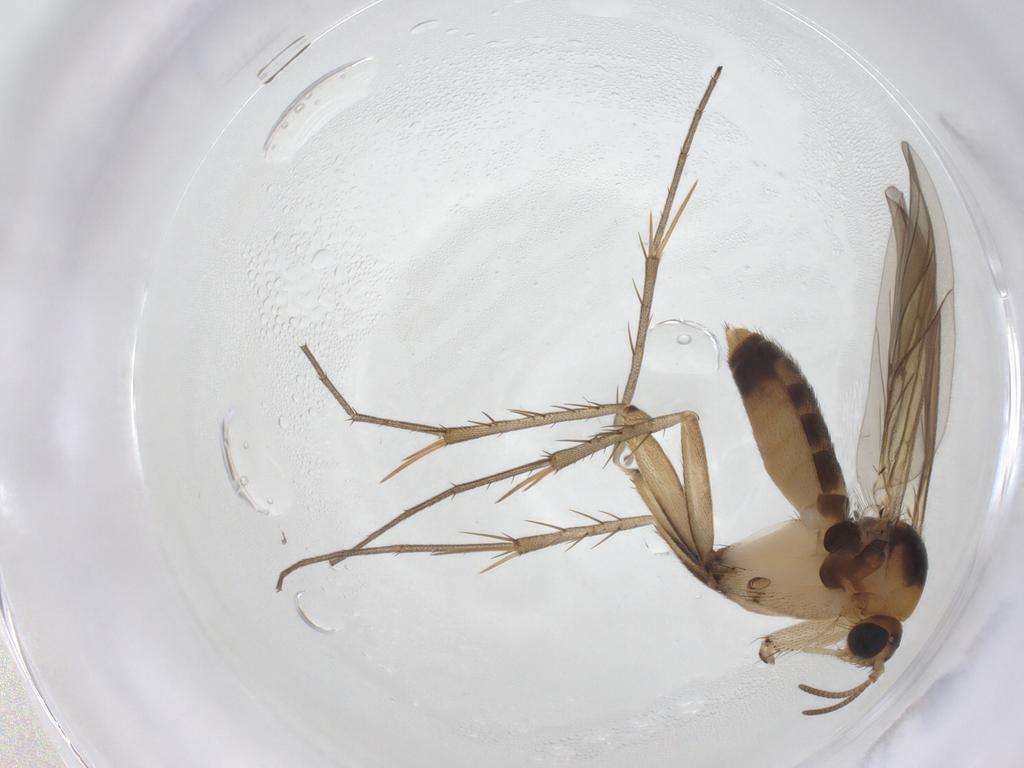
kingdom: Animalia
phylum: Arthropoda
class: Insecta
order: Diptera
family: Mycetophilidae
